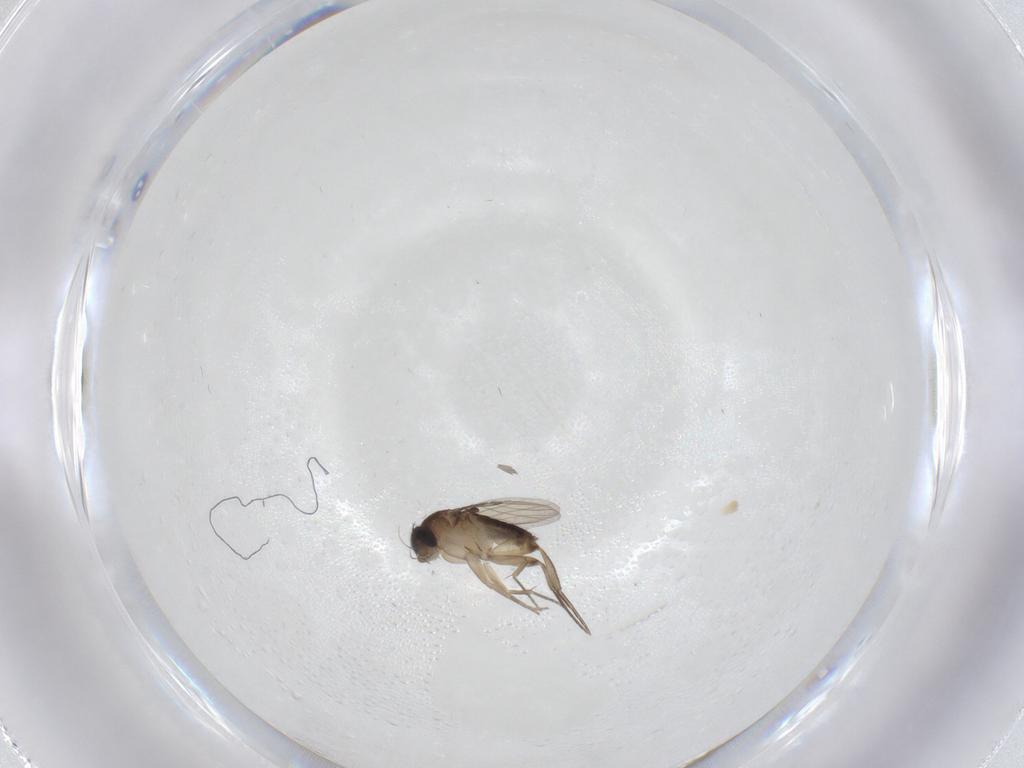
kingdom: Animalia
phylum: Arthropoda
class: Insecta
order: Diptera
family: Phoridae
